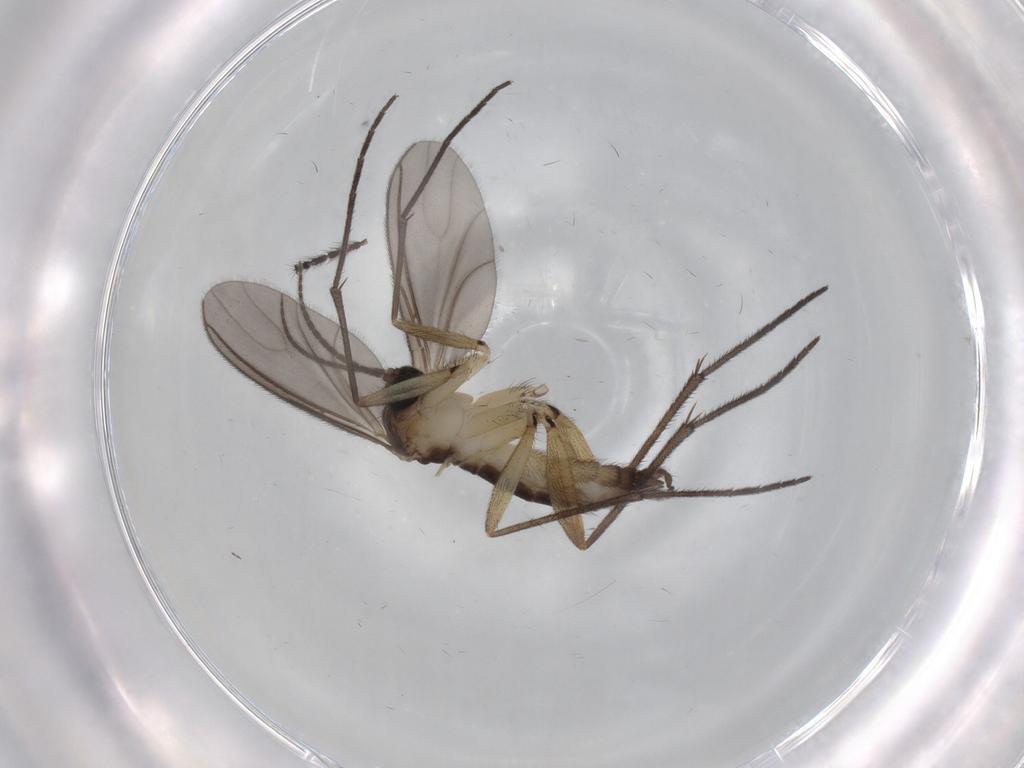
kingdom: Animalia
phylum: Arthropoda
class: Insecta
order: Diptera
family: Sciaridae
